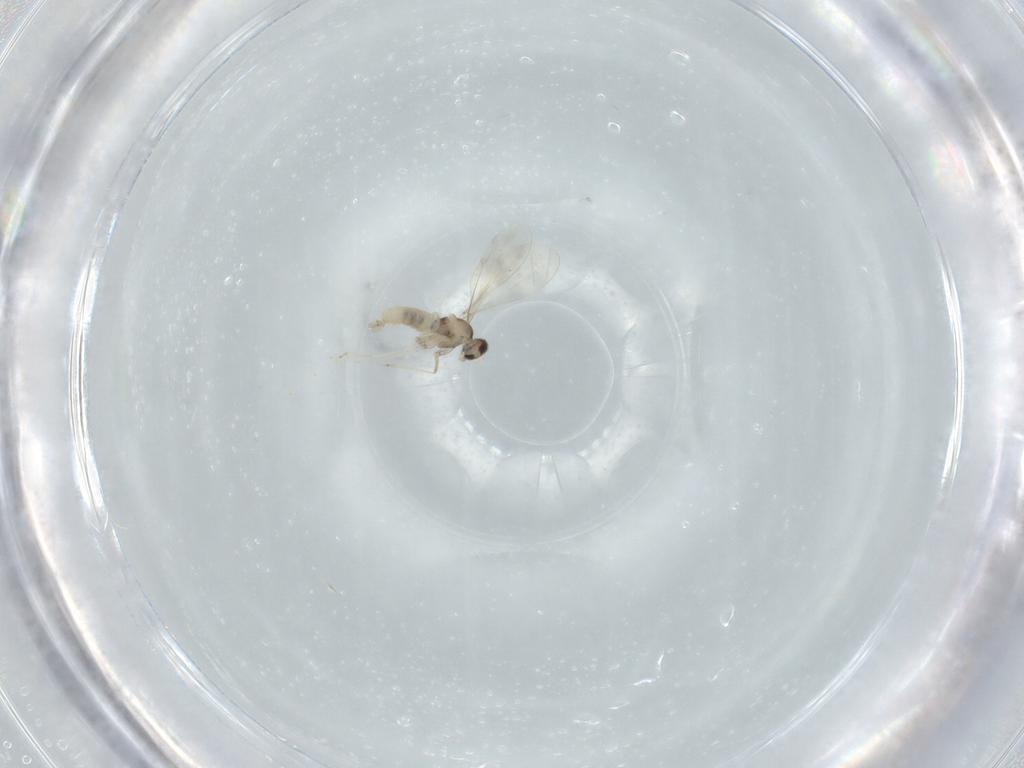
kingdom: Animalia
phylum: Arthropoda
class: Insecta
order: Diptera
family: Cecidomyiidae
